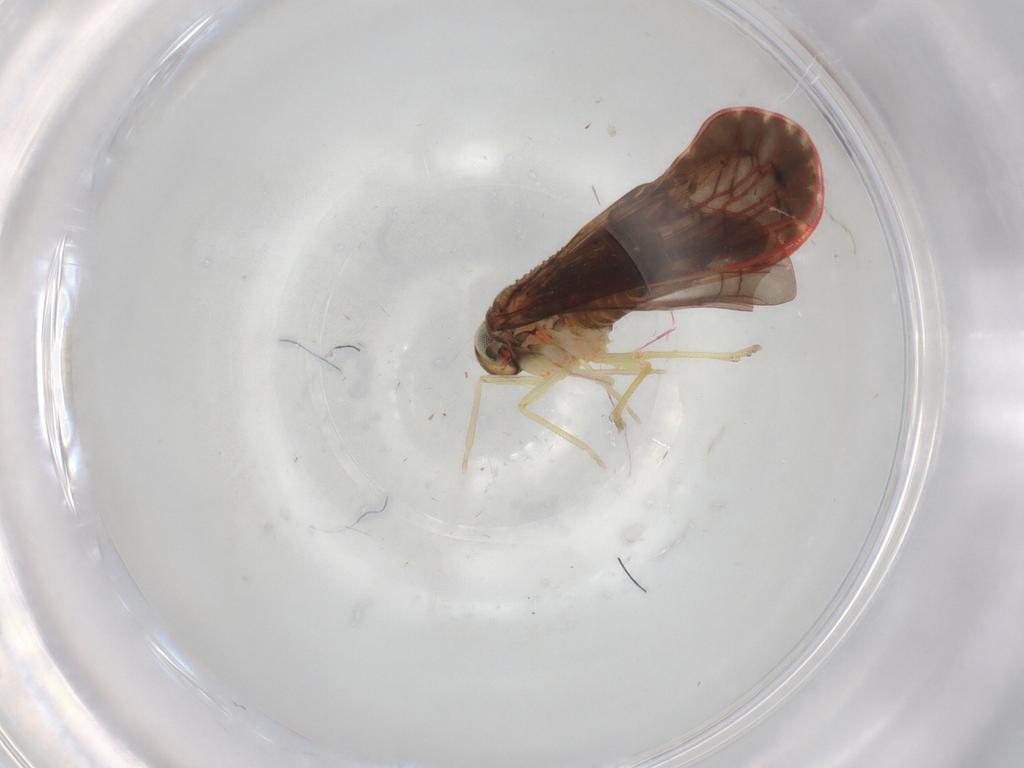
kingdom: Animalia
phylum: Arthropoda
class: Insecta
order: Hemiptera
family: Derbidae
